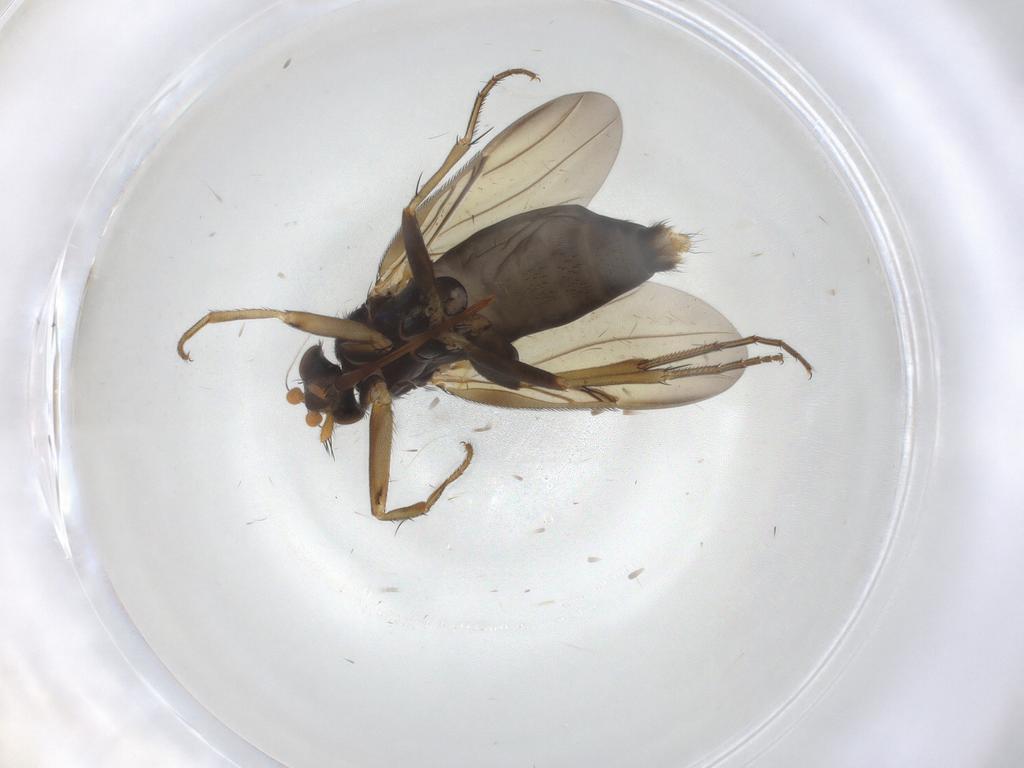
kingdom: Animalia
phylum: Arthropoda
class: Insecta
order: Diptera
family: Phoridae
